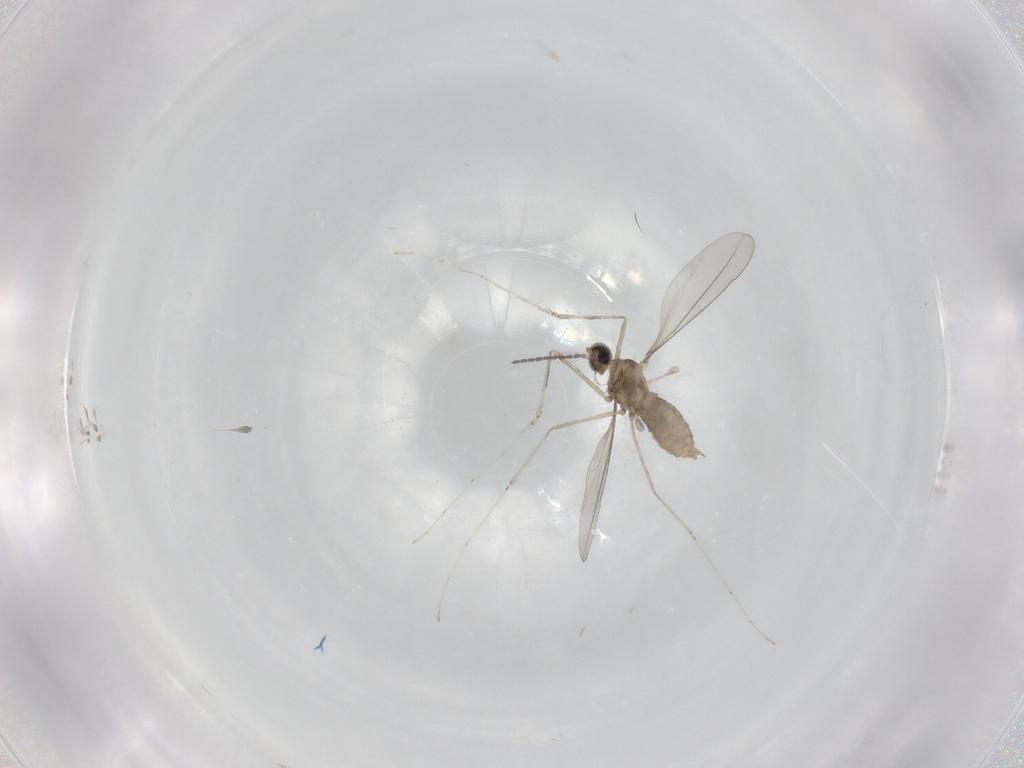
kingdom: Animalia
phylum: Arthropoda
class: Insecta
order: Diptera
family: Cecidomyiidae
